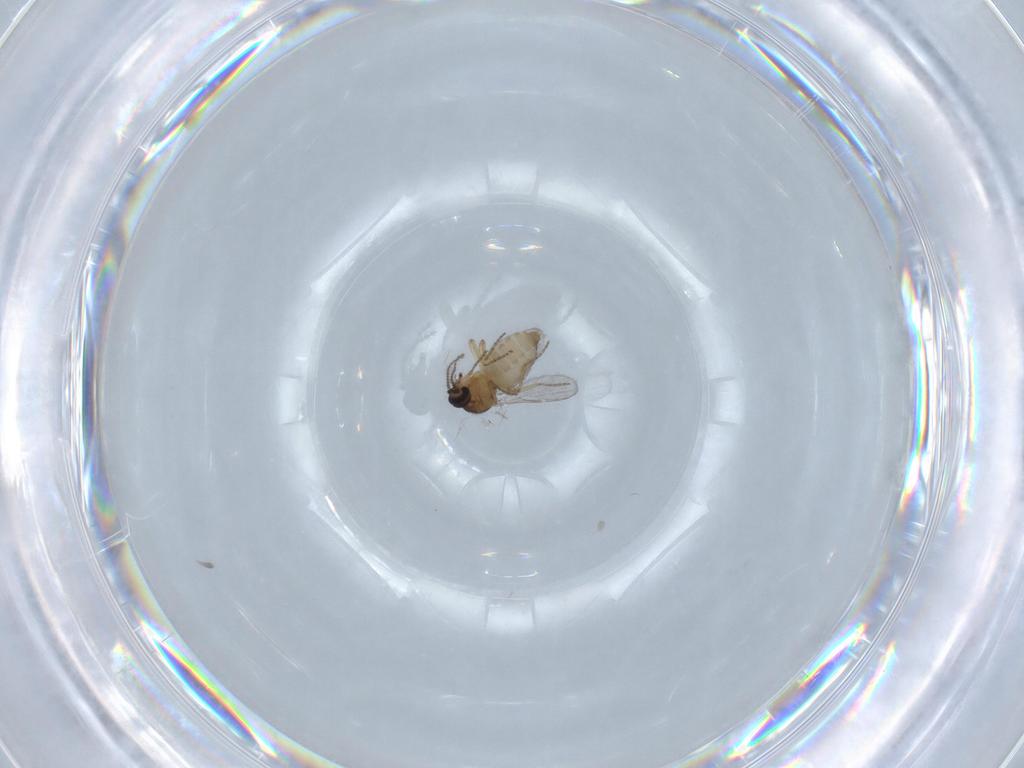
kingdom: Animalia
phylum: Arthropoda
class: Insecta
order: Diptera
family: Ceratopogonidae
